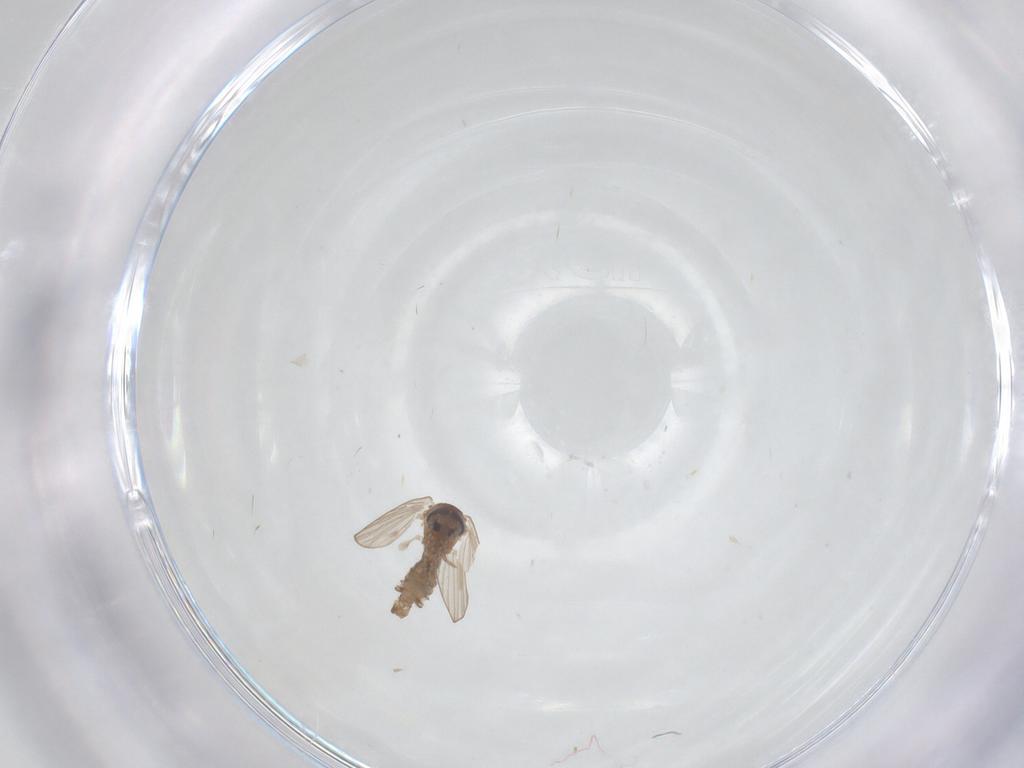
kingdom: Animalia
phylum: Arthropoda
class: Insecta
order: Diptera
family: Psychodidae
